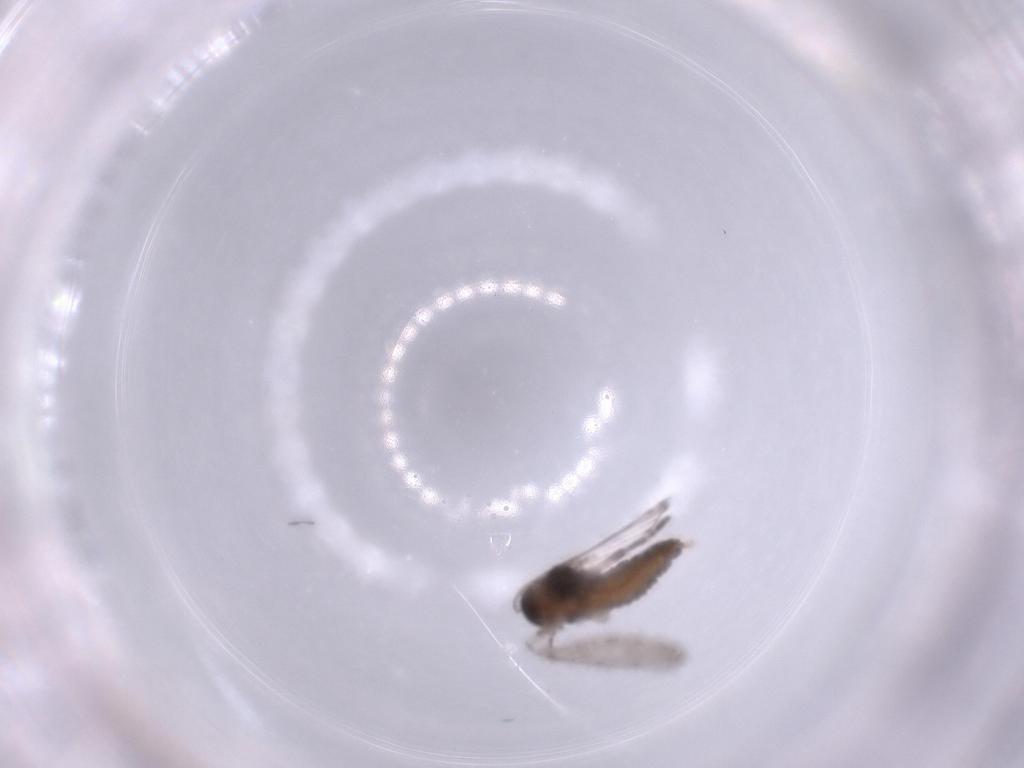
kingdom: Animalia
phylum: Arthropoda
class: Insecta
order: Diptera
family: Psychodidae
